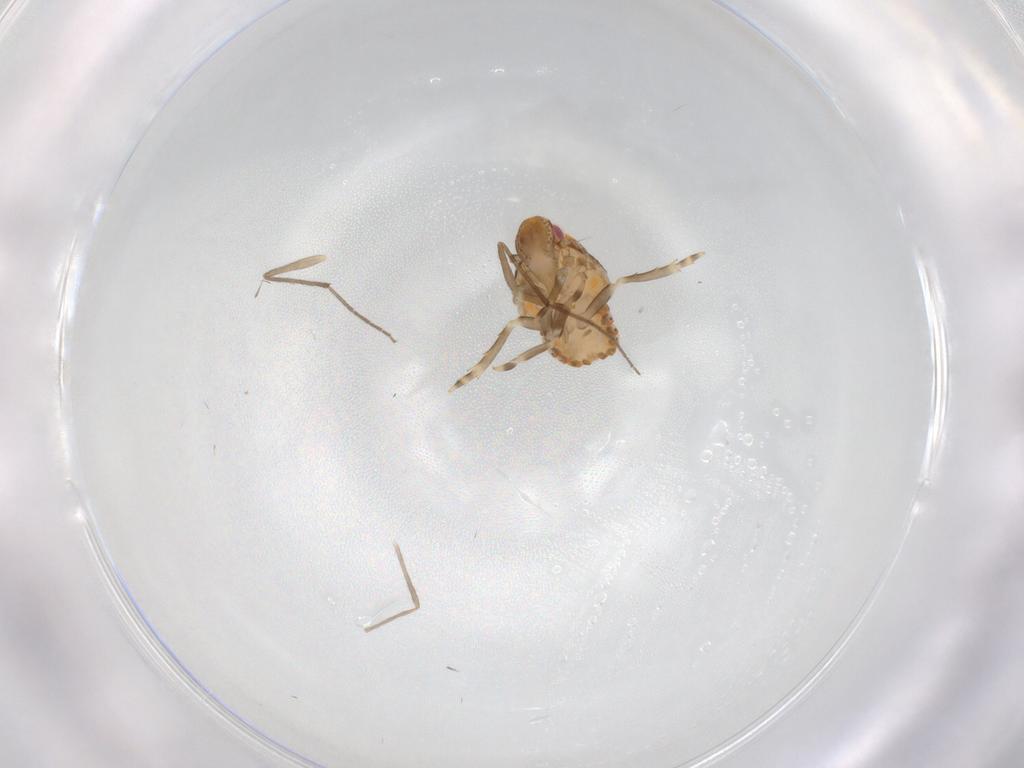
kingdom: Animalia
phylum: Arthropoda
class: Insecta
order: Hemiptera
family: Flatidae
